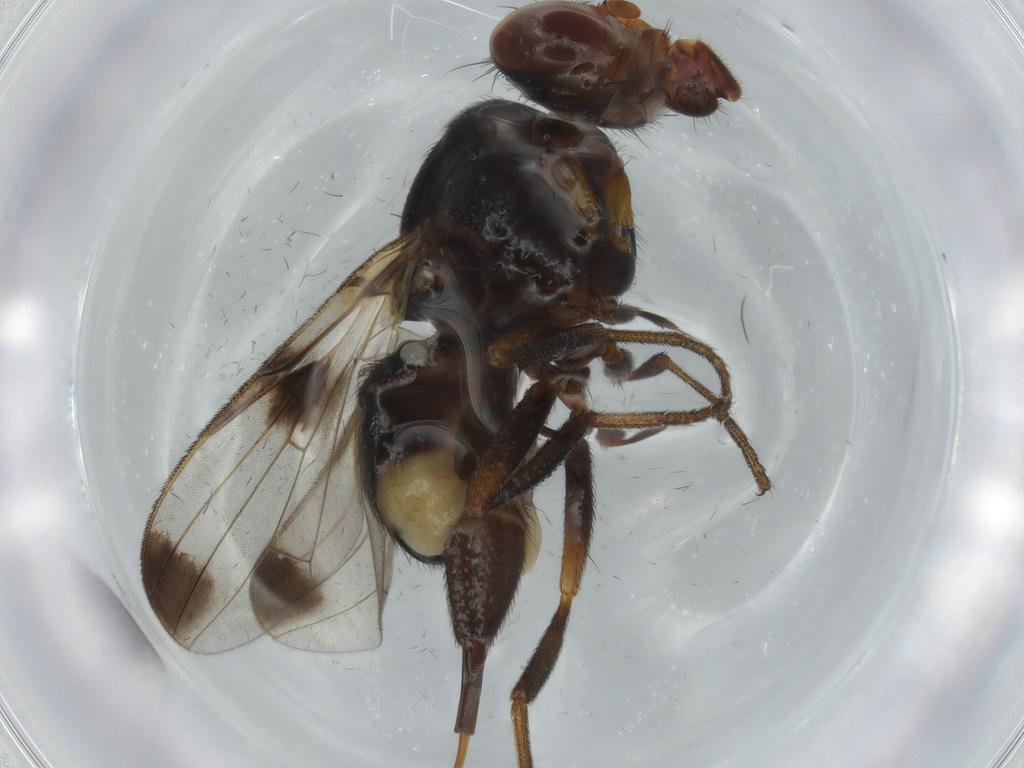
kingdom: Animalia
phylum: Arthropoda
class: Insecta
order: Diptera
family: Ulidiidae
